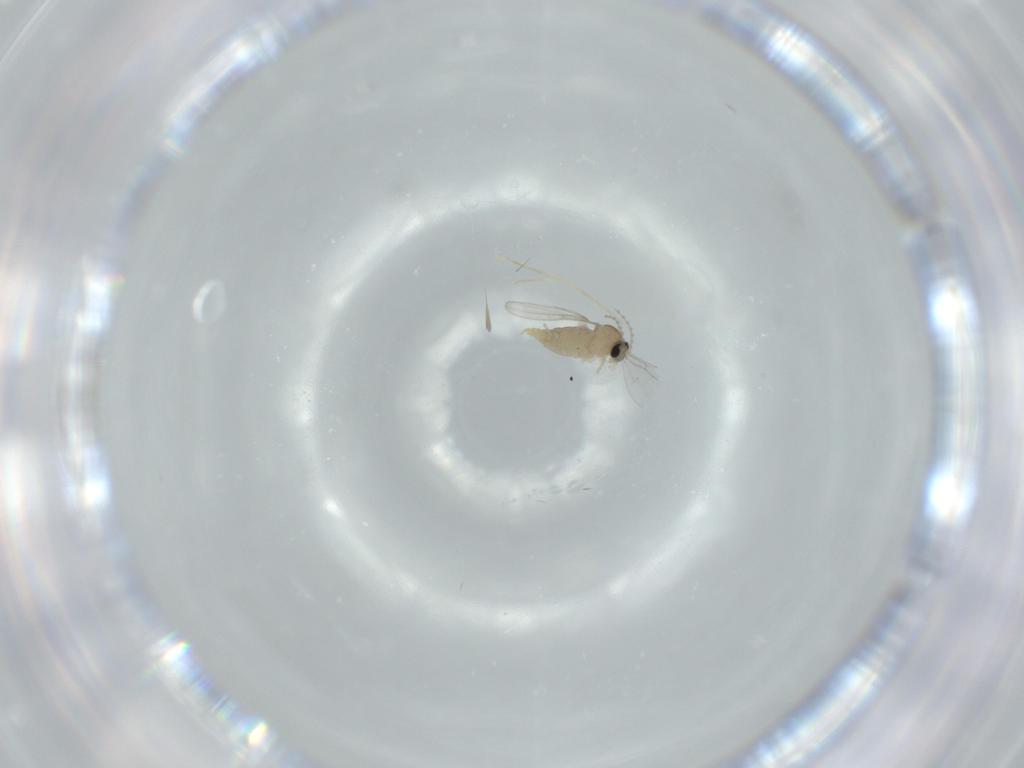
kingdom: Animalia
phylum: Arthropoda
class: Insecta
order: Diptera
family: Cecidomyiidae
